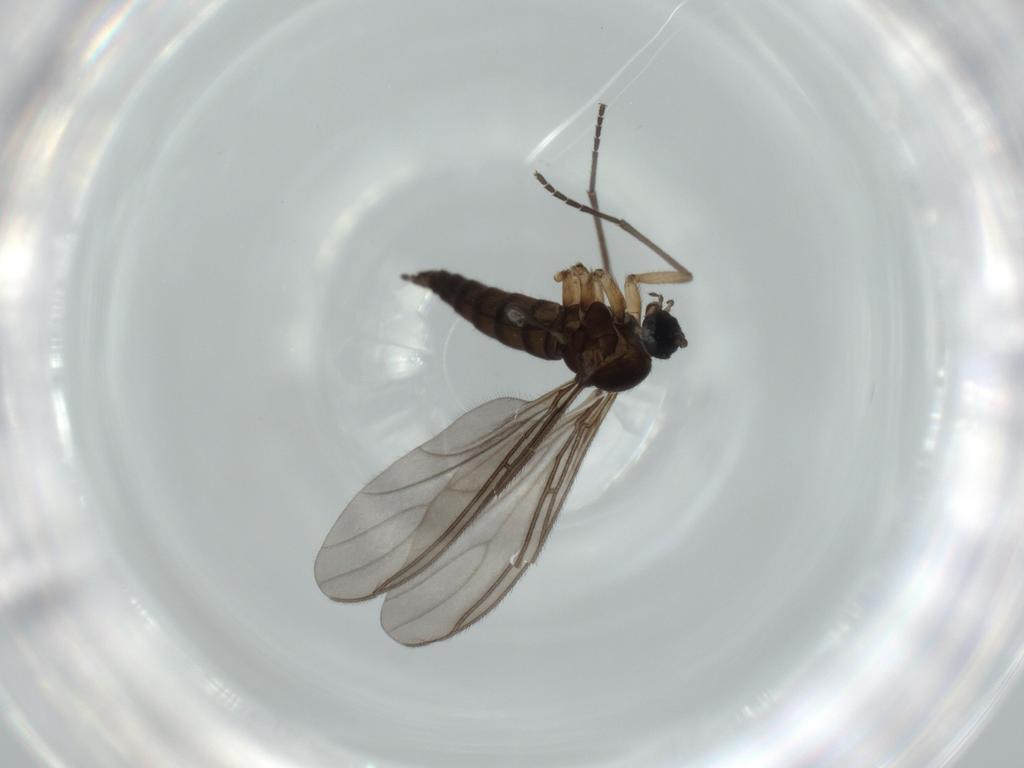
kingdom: Animalia
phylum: Arthropoda
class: Insecta
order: Diptera
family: Sciaridae
